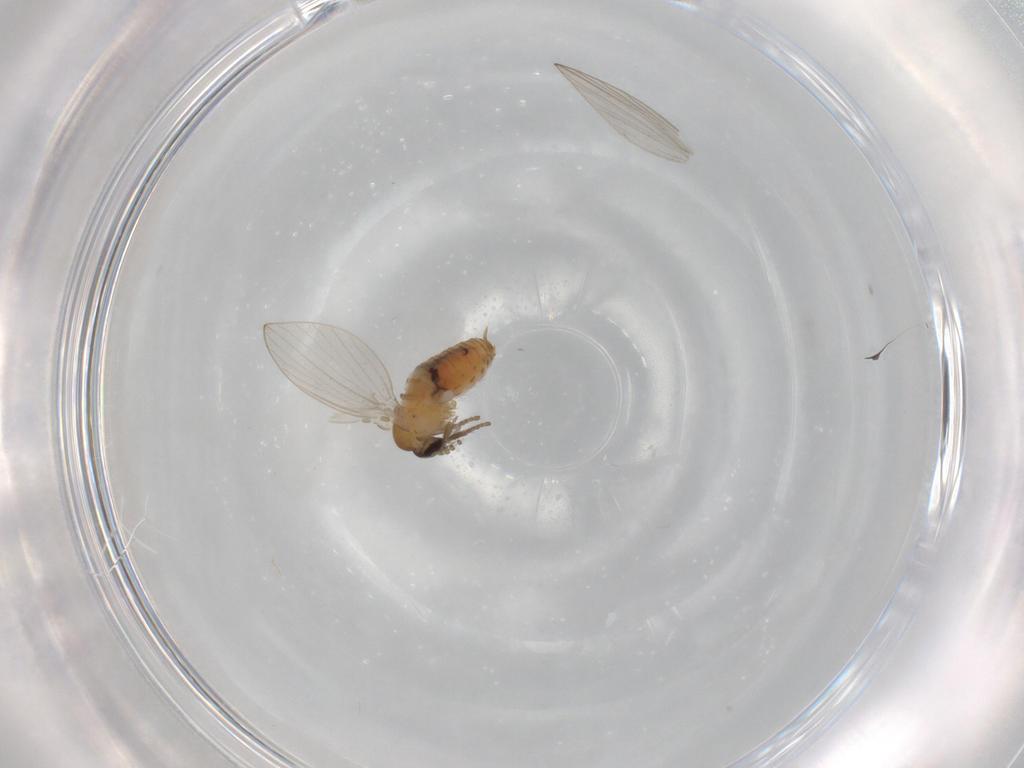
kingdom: Animalia
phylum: Arthropoda
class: Insecta
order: Diptera
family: Psychodidae
